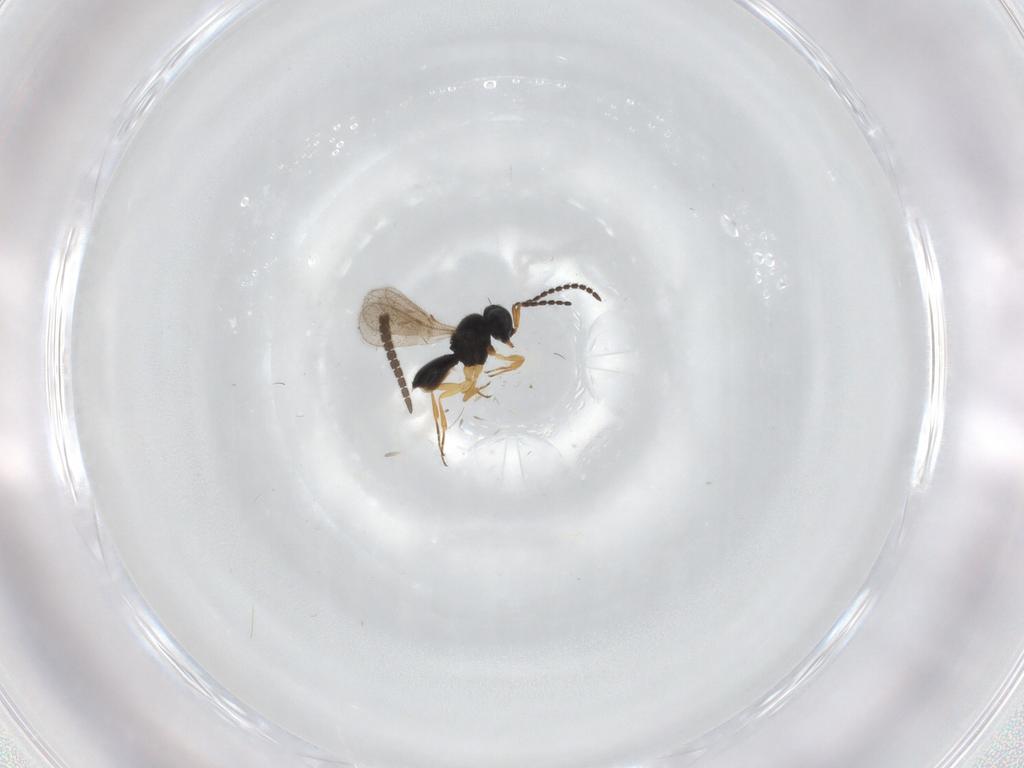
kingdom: Animalia
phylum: Arthropoda
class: Insecta
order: Hymenoptera
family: Scelionidae
